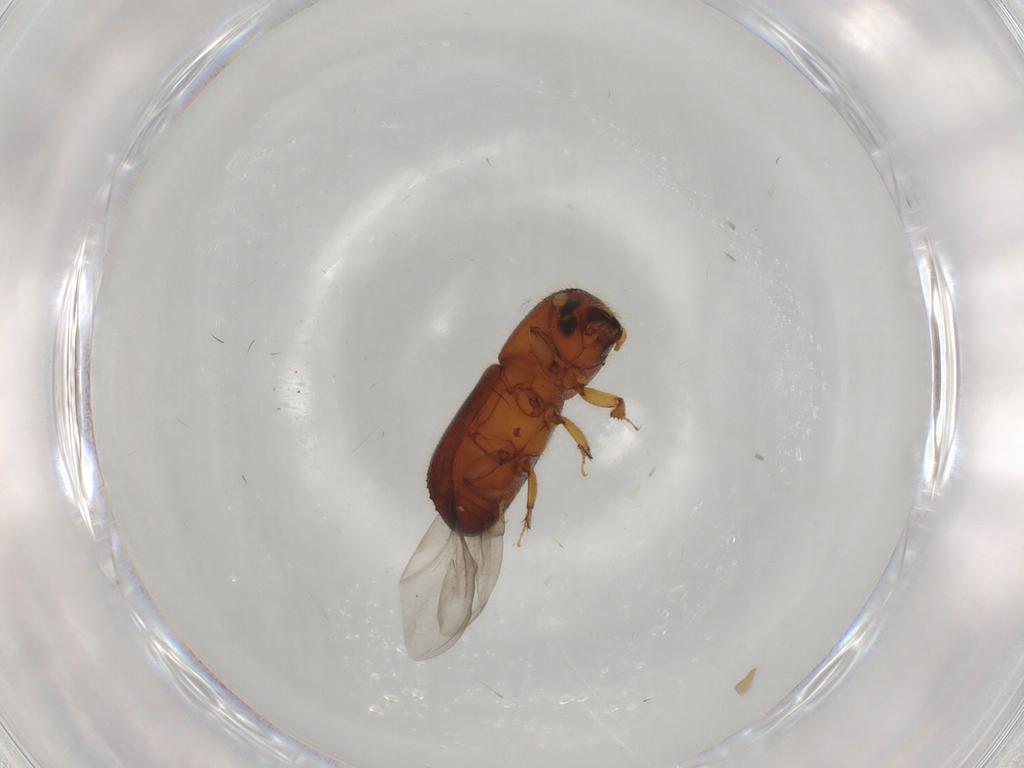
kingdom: Animalia
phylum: Arthropoda
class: Insecta
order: Coleoptera
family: Curculionidae
